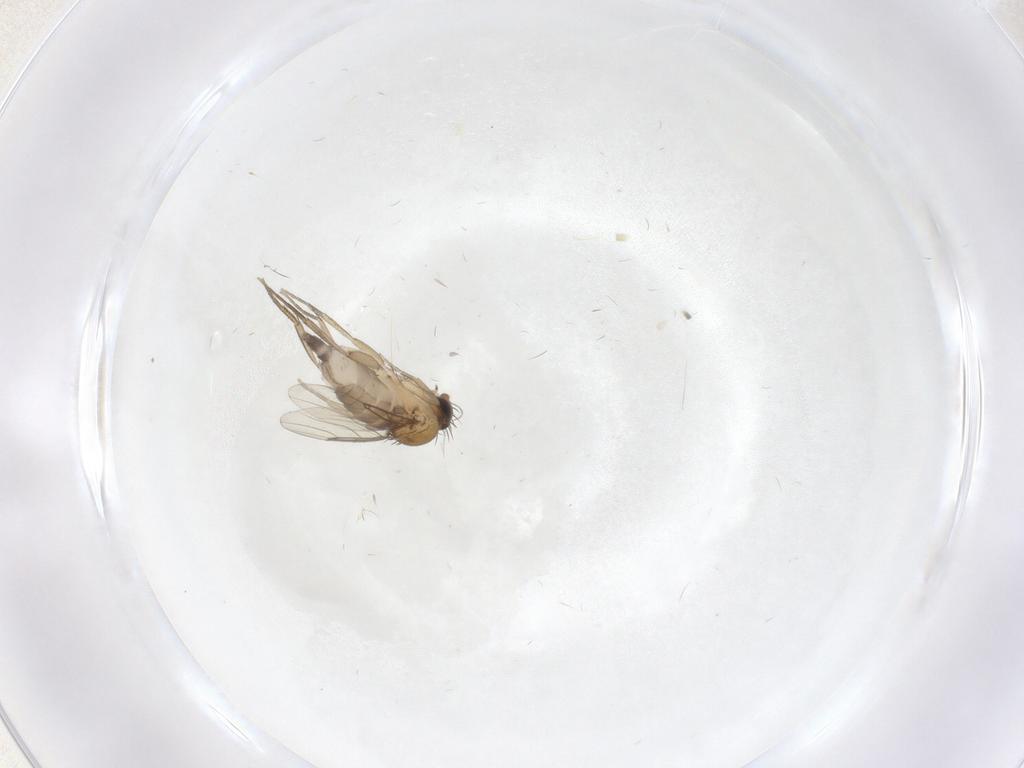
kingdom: Animalia
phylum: Arthropoda
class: Insecta
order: Diptera
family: Phoridae
